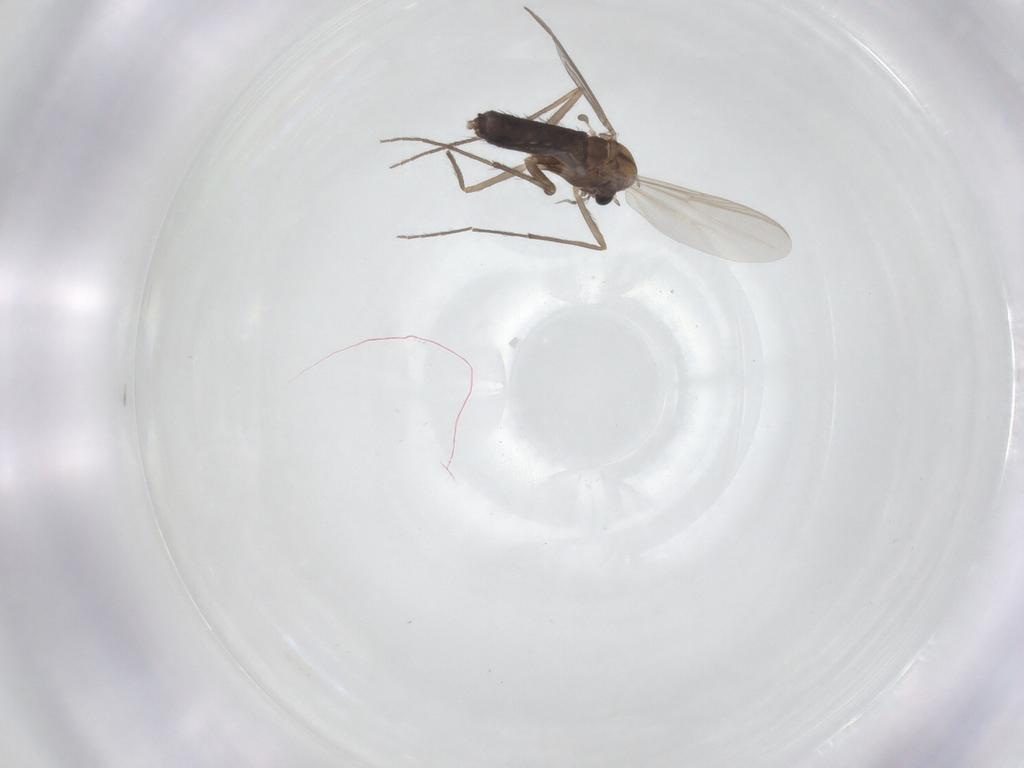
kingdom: Animalia
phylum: Arthropoda
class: Insecta
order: Diptera
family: Chironomidae
